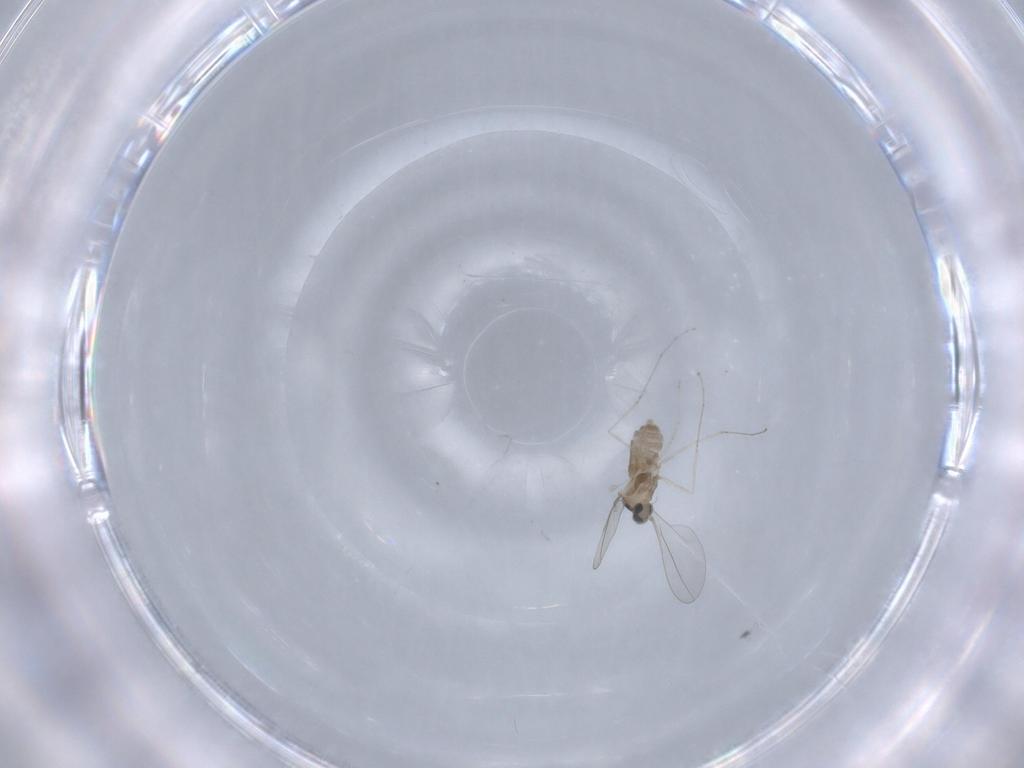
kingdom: Animalia
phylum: Arthropoda
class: Insecta
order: Diptera
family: Cecidomyiidae
